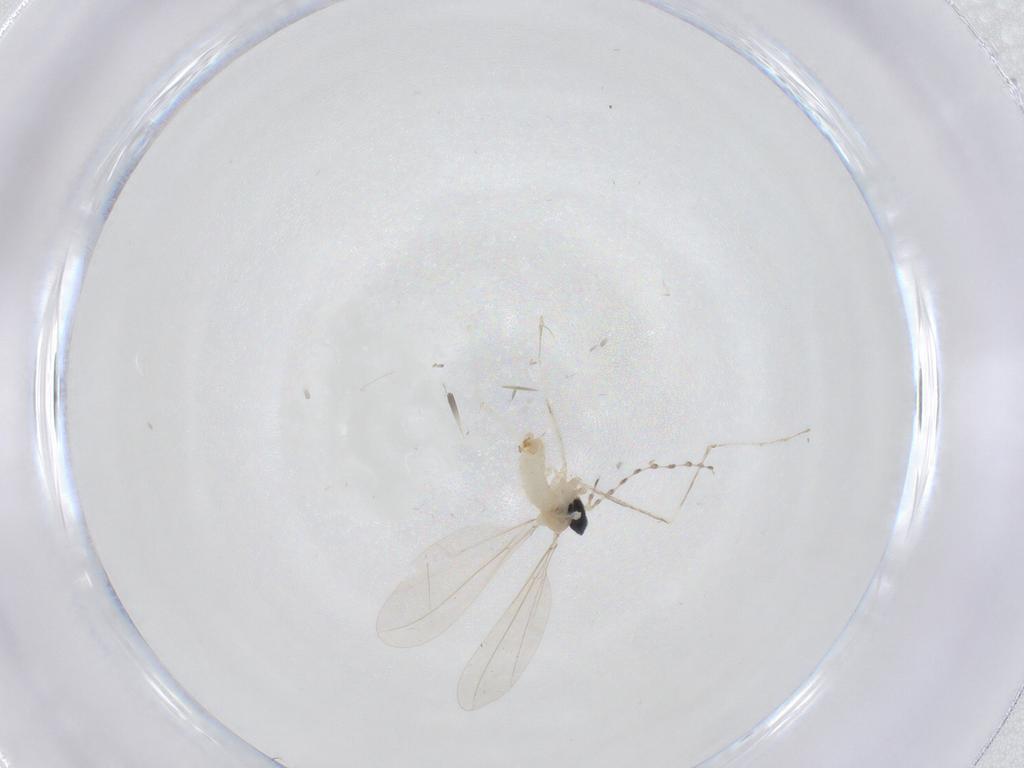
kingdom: Animalia
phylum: Arthropoda
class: Insecta
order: Diptera
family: Cecidomyiidae
